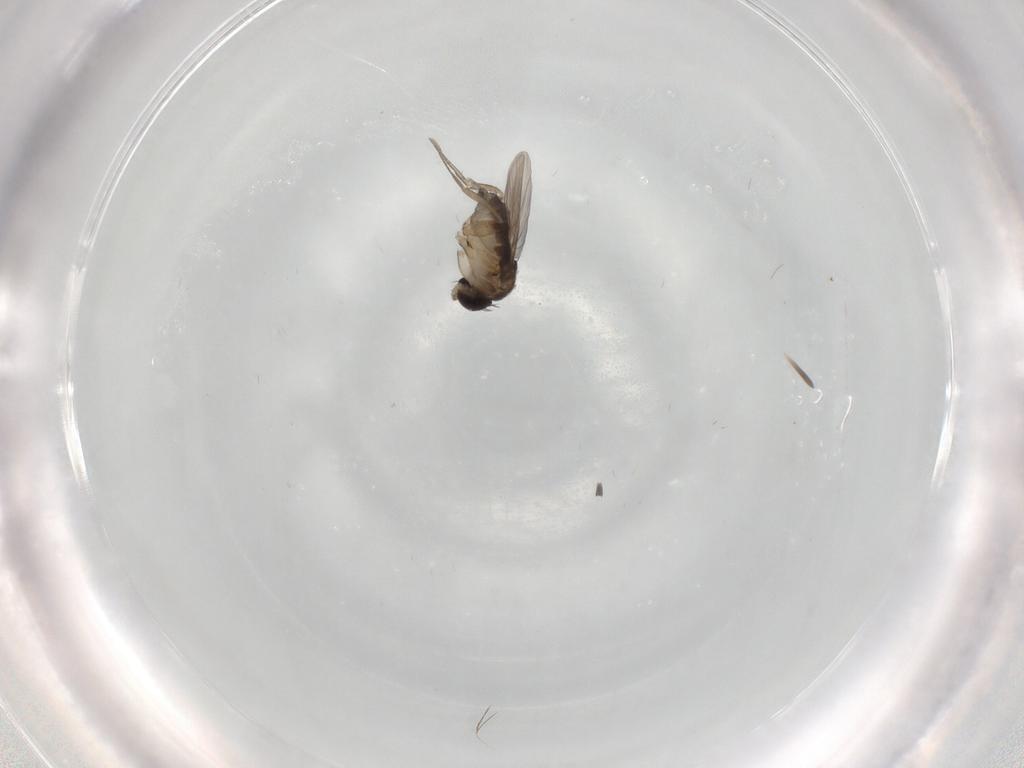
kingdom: Animalia
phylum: Arthropoda
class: Insecta
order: Diptera
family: Phoridae
